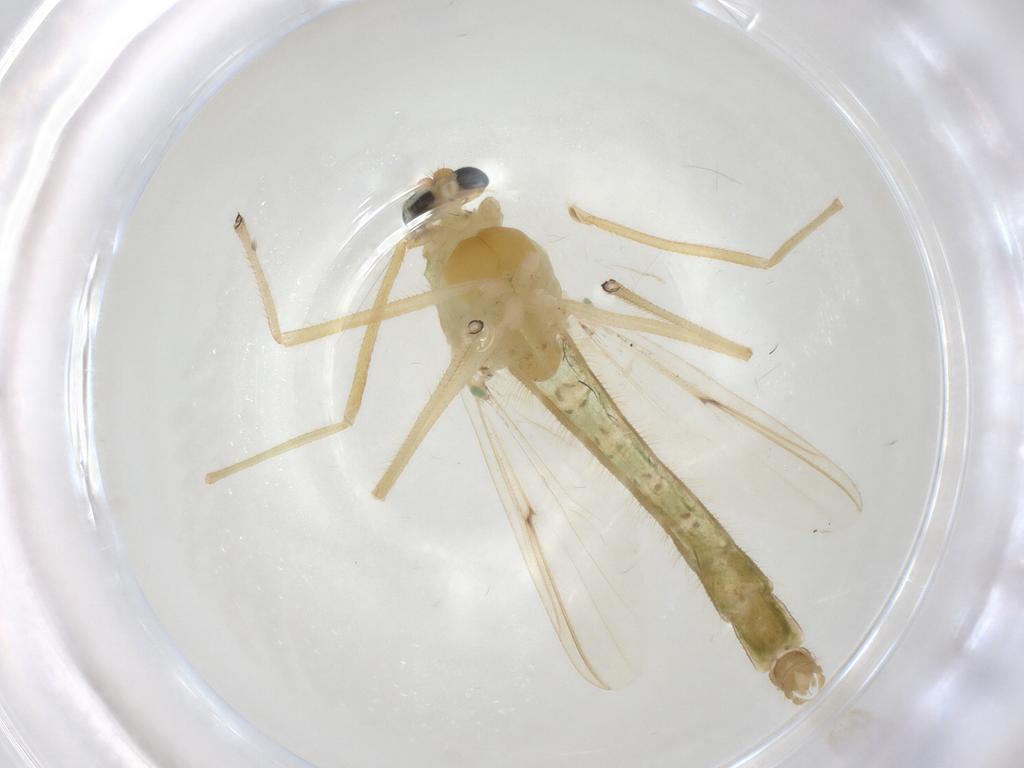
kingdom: Animalia
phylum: Arthropoda
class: Insecta
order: Diptera
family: Chironomidae
